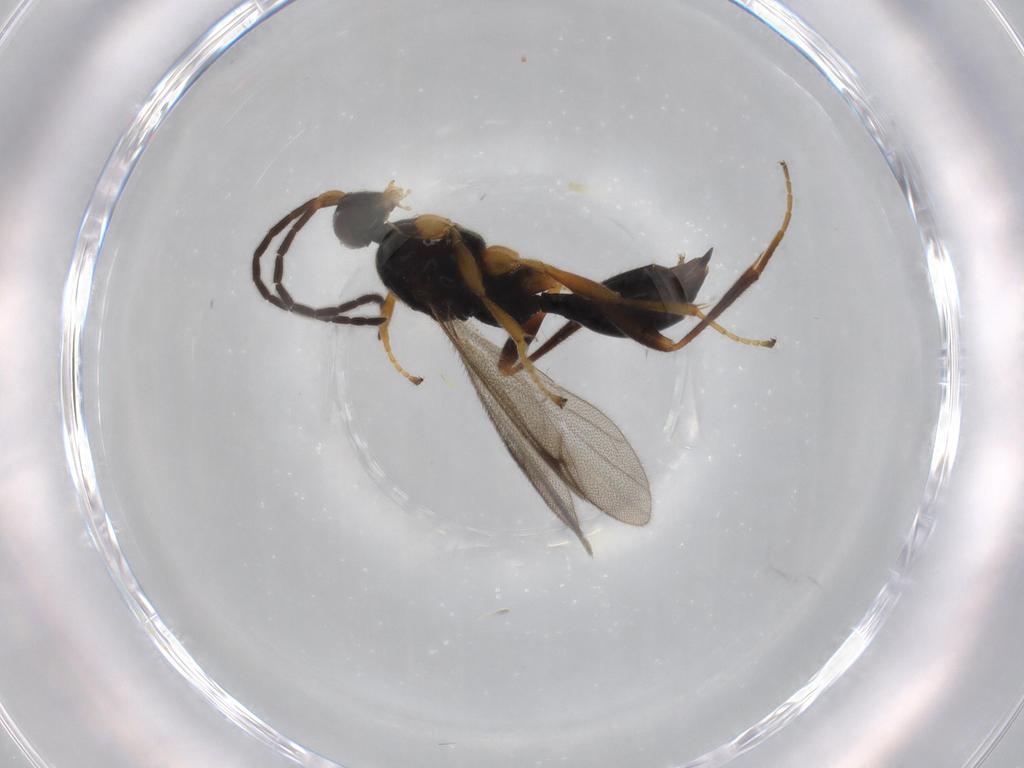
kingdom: Animalia
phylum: Arthropoda
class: Insecta
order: Hymenoptera
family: Proctotrupidae
